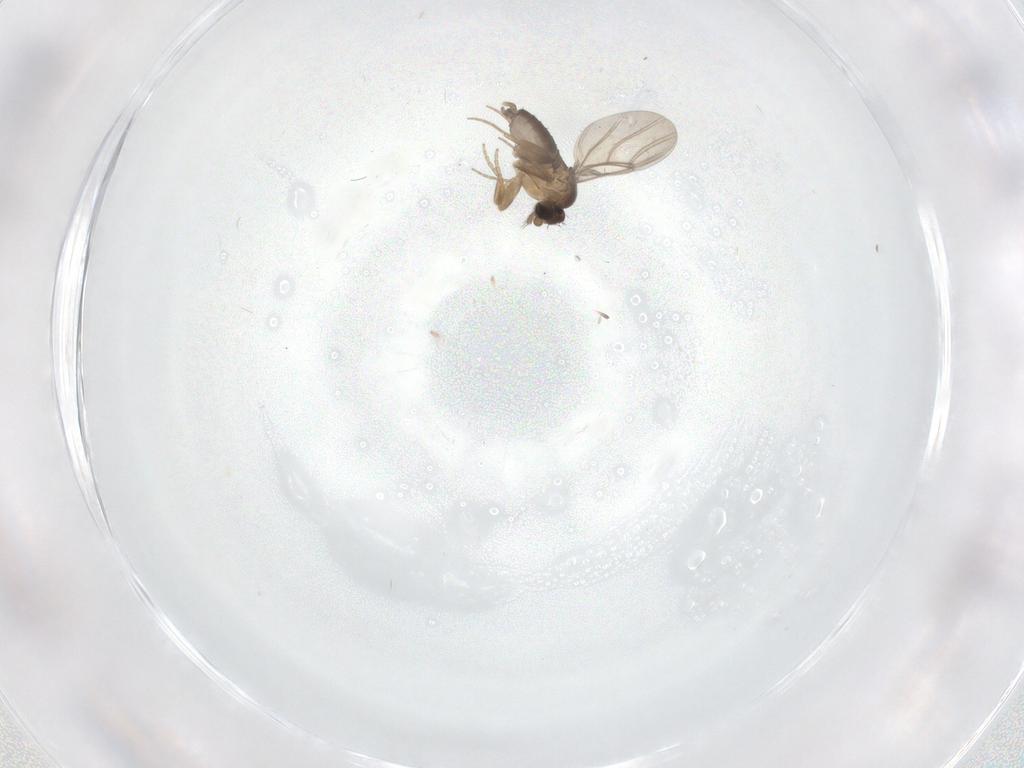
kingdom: Animalia
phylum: Arthropoda
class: Insecta
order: Diptera
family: Phoridae
